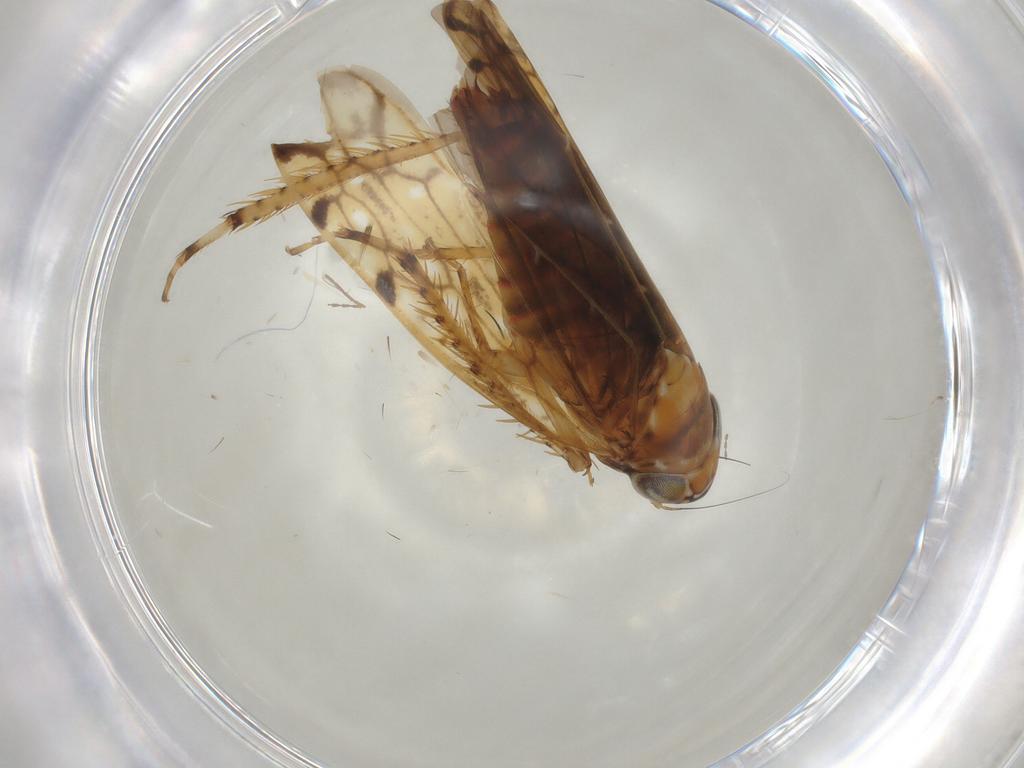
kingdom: Animalia
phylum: Arthropoda
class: Insecta
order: Hemiptera
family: Cicadellidae
